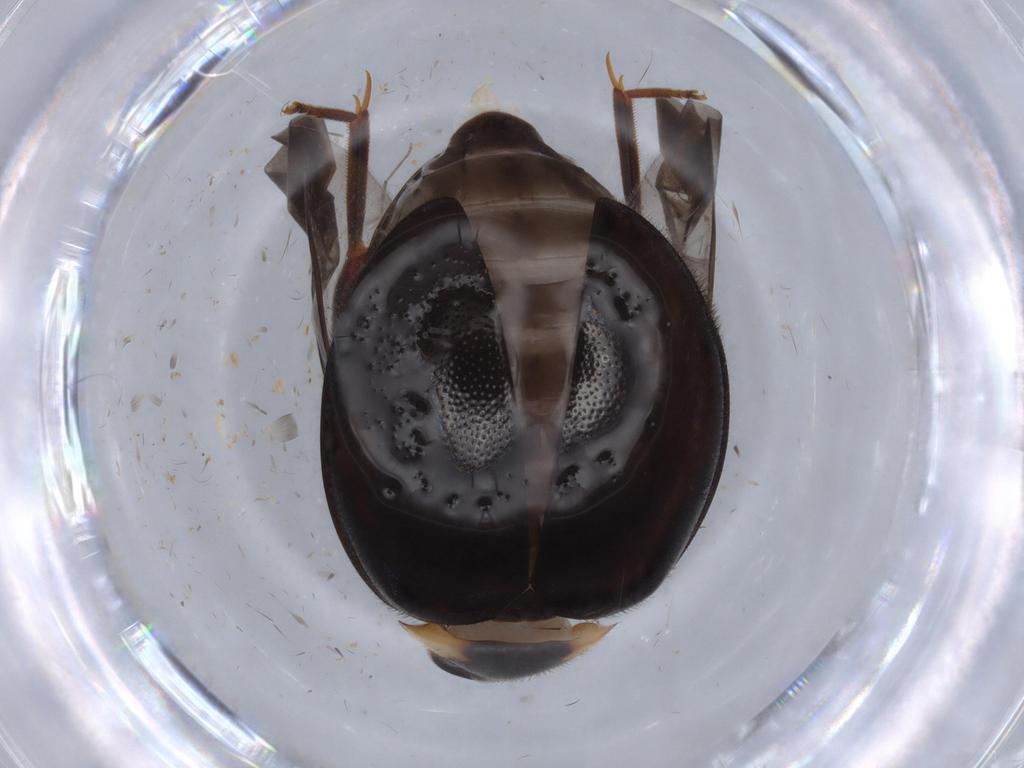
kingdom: Animalia
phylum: Arthropoda
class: Insecta
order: Coleoptera
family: Scirtidae
